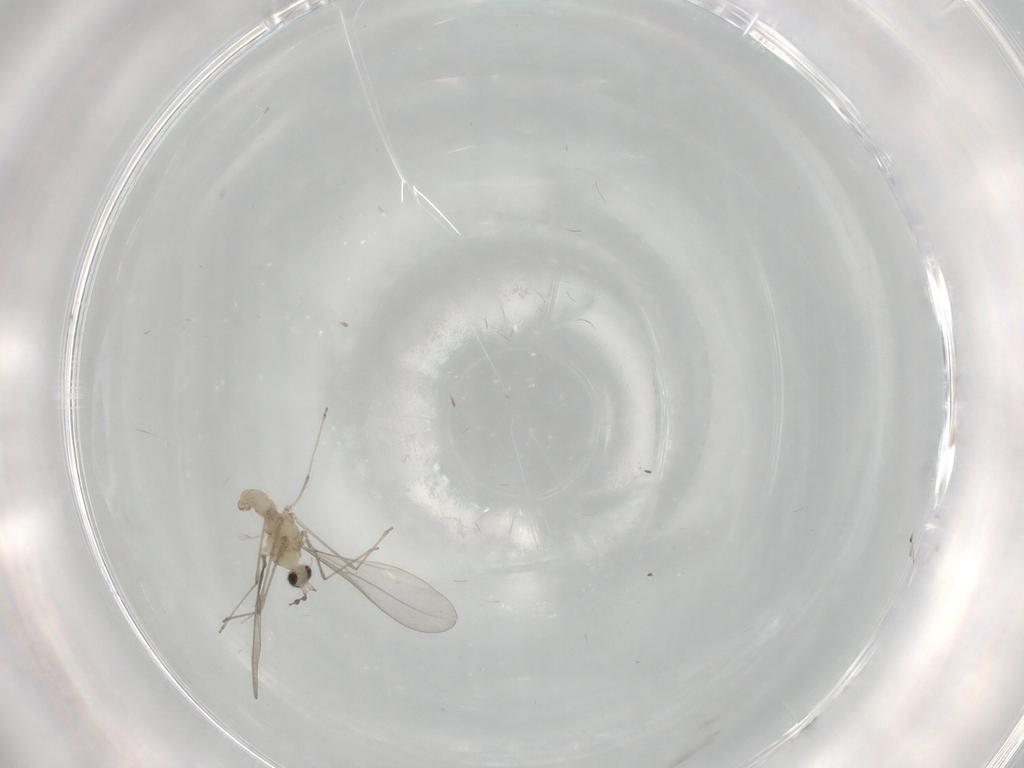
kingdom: Animalia
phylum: Arthropoda
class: Insecta
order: Diptera
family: Cecidomyiidae
